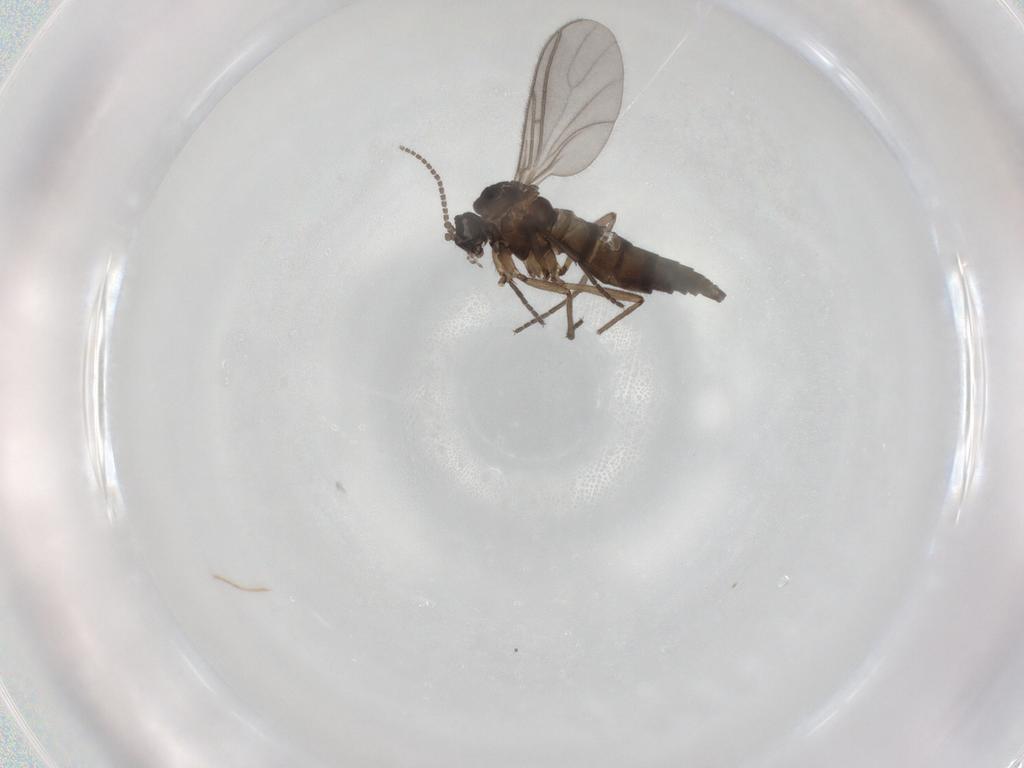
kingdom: Animalia
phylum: Arthropoda
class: Insecta
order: Diptera
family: Sciaridae
